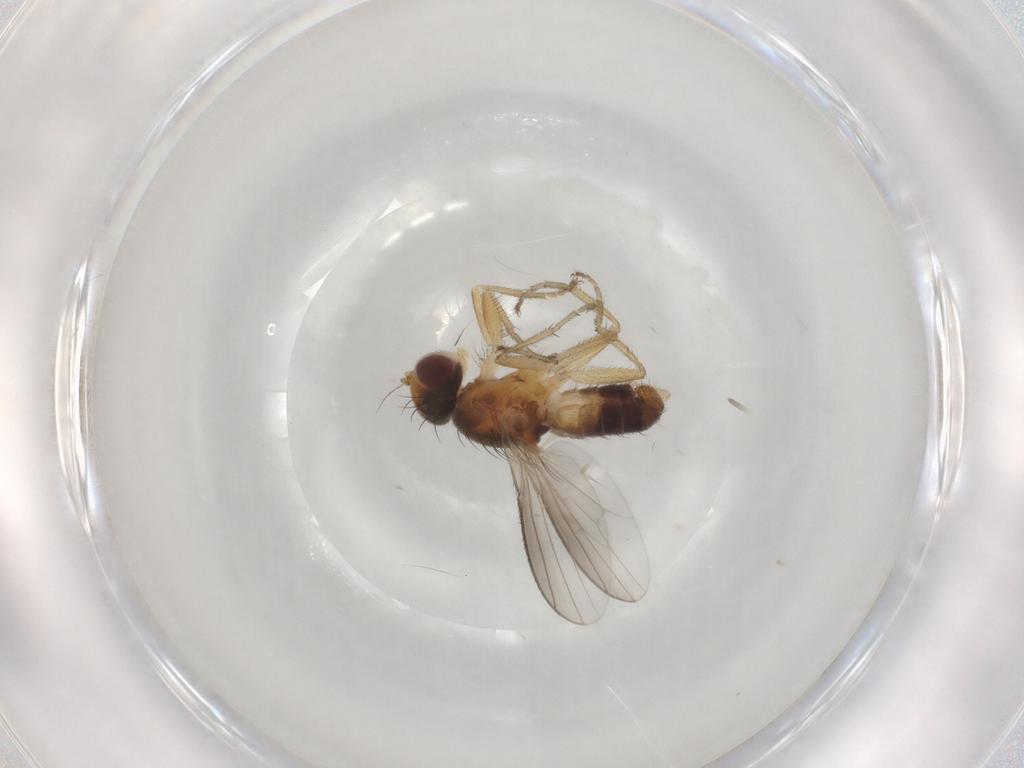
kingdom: Animalia
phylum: Arthropoda
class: Insecta
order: Diptera
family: Heleomyzidae
